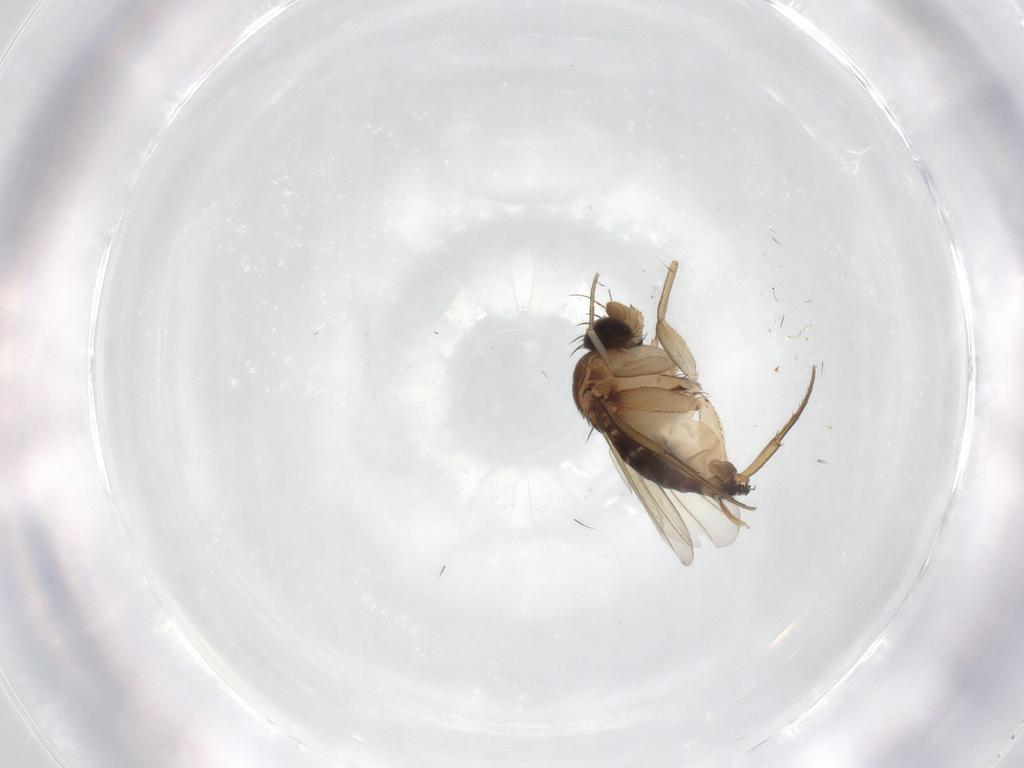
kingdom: Animalia
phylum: Arthropoda
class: Insecta
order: Diptera
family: Phoridae
